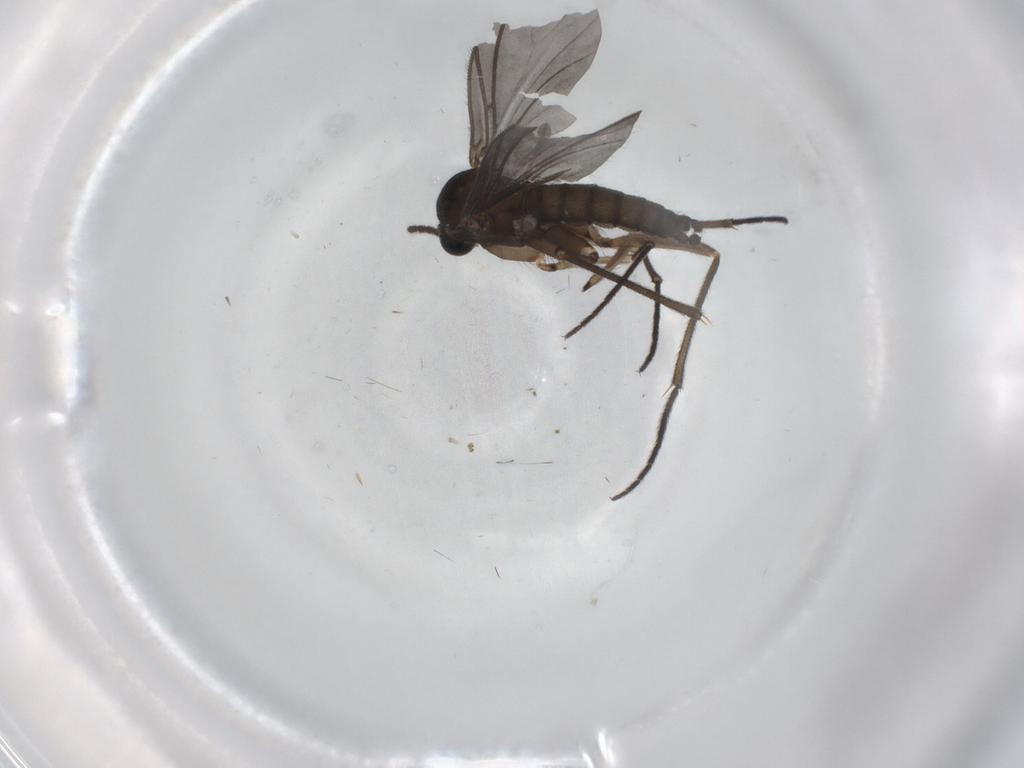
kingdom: Animalia
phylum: Arthropoda
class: Insecta
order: Diptera
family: Sciaridae
